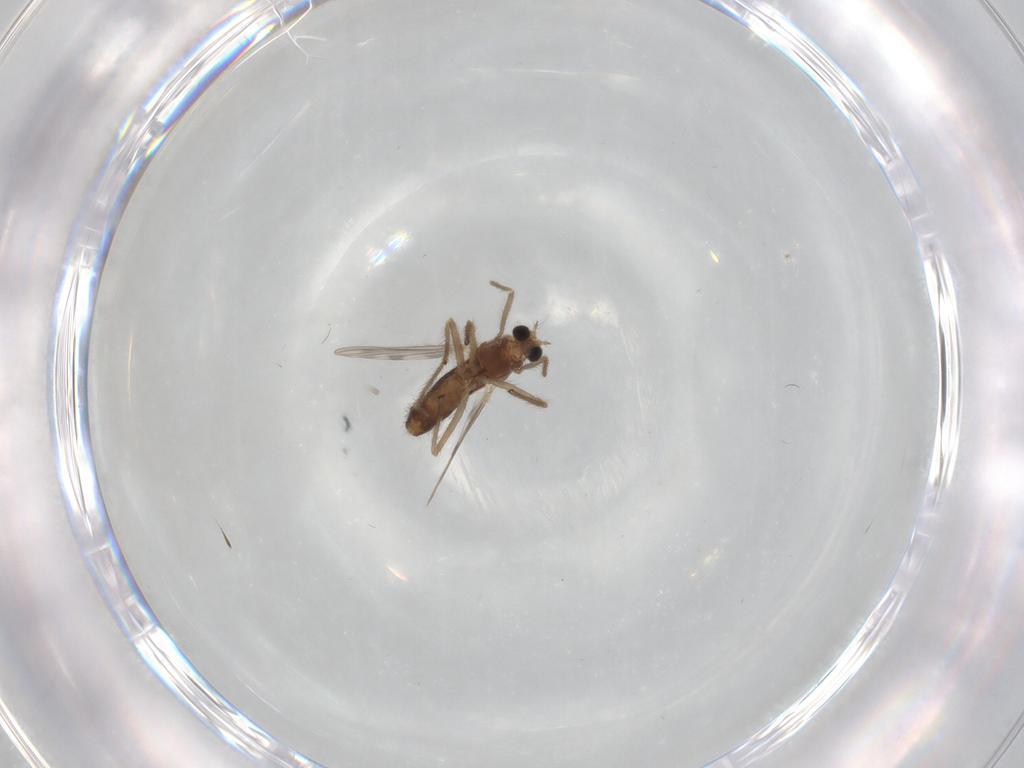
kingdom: Animalia
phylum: Arthropoda
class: Insecta
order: Diptera
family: Chironomidae
